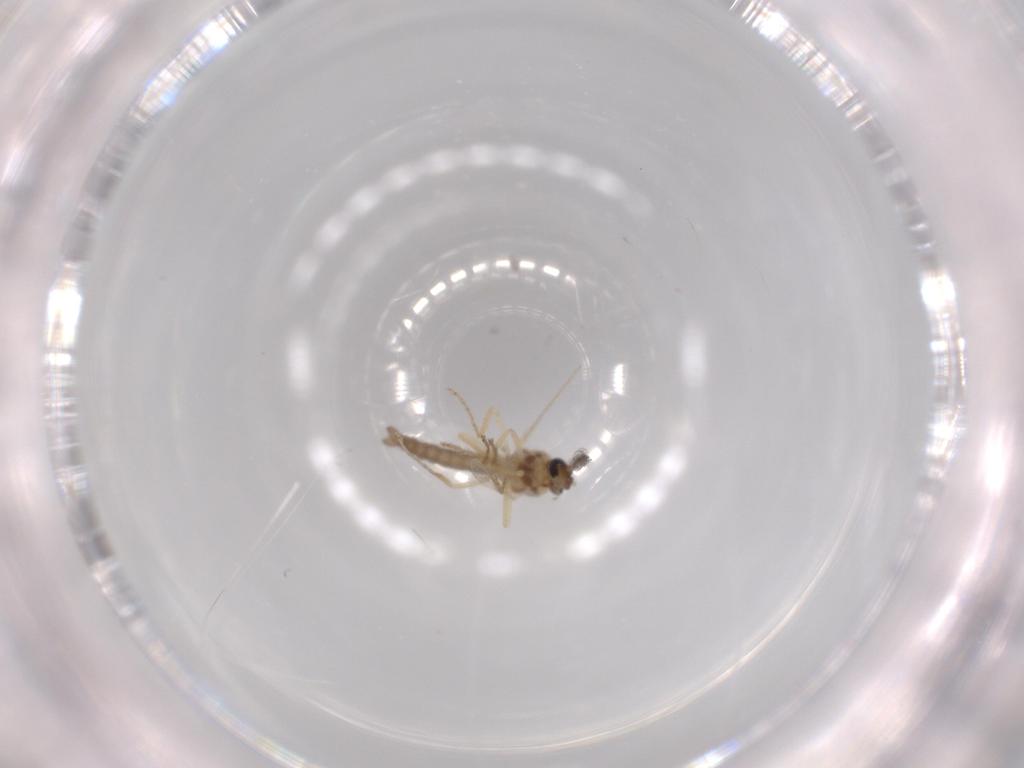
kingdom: Animalia
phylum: Arthropoda
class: Insecta
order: Diptera
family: Ceratopogonidae
